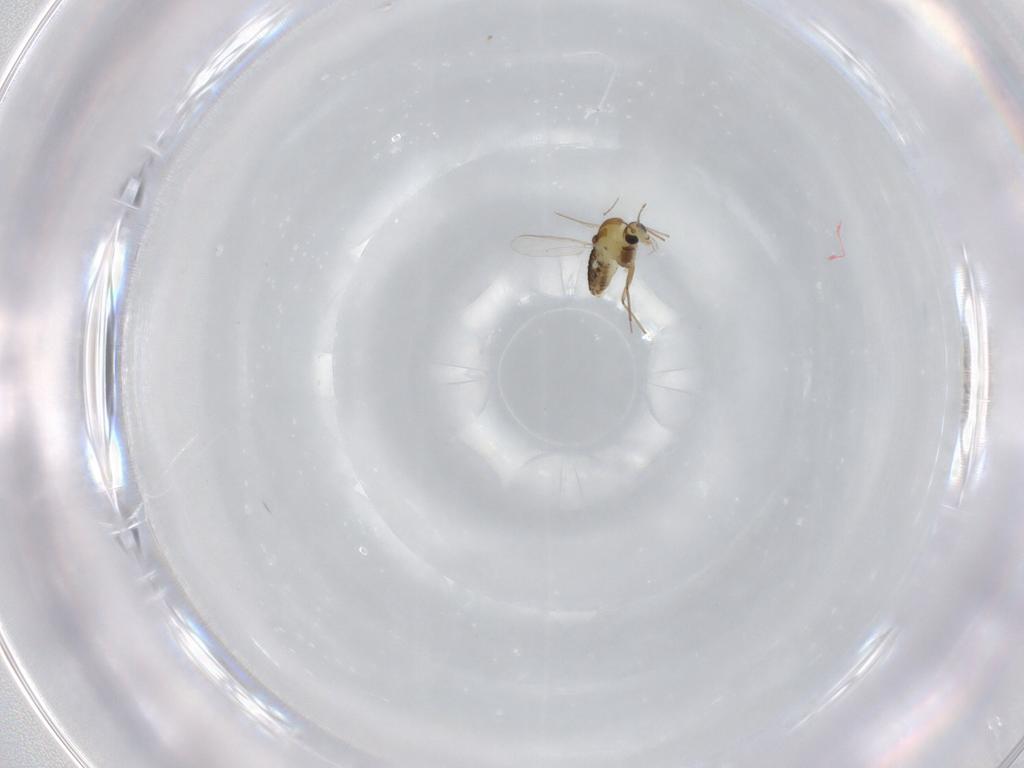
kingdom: Animalia
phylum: Arthropoda
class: Insecta
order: Diptera
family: Chironomidae
